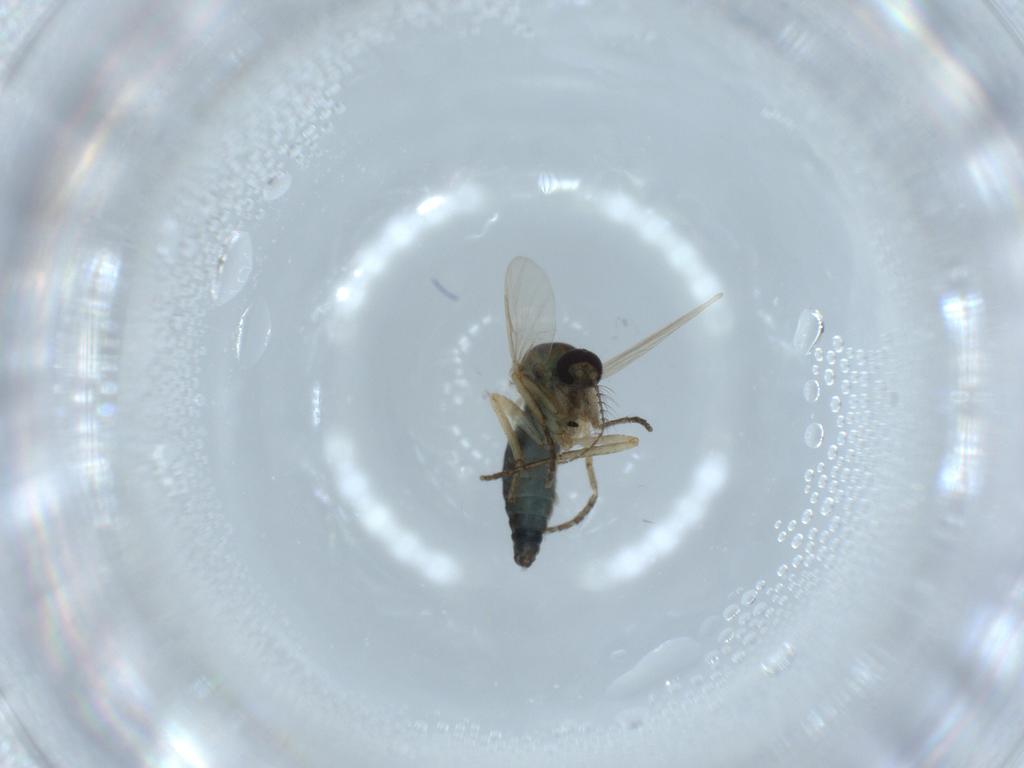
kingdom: Animalia
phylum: Arthropoda
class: Insecta
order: Diptera
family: Ceratopogonidae
